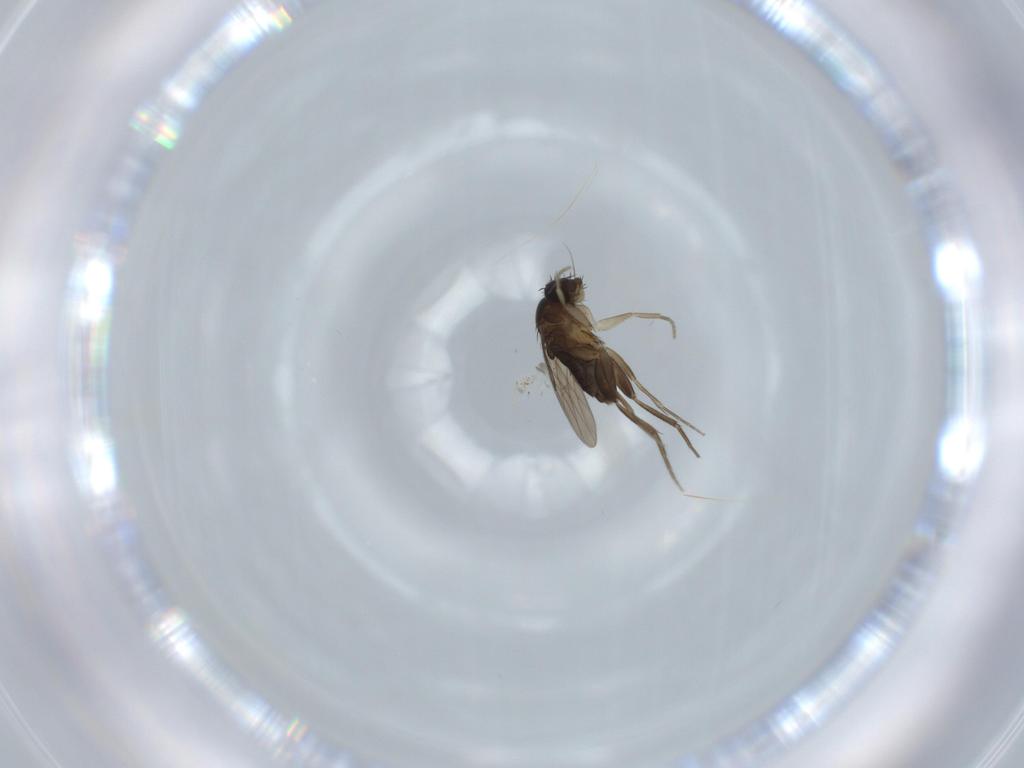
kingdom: Animalia
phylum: Arthropoda
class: Insecta
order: Diptera
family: Phoridae
